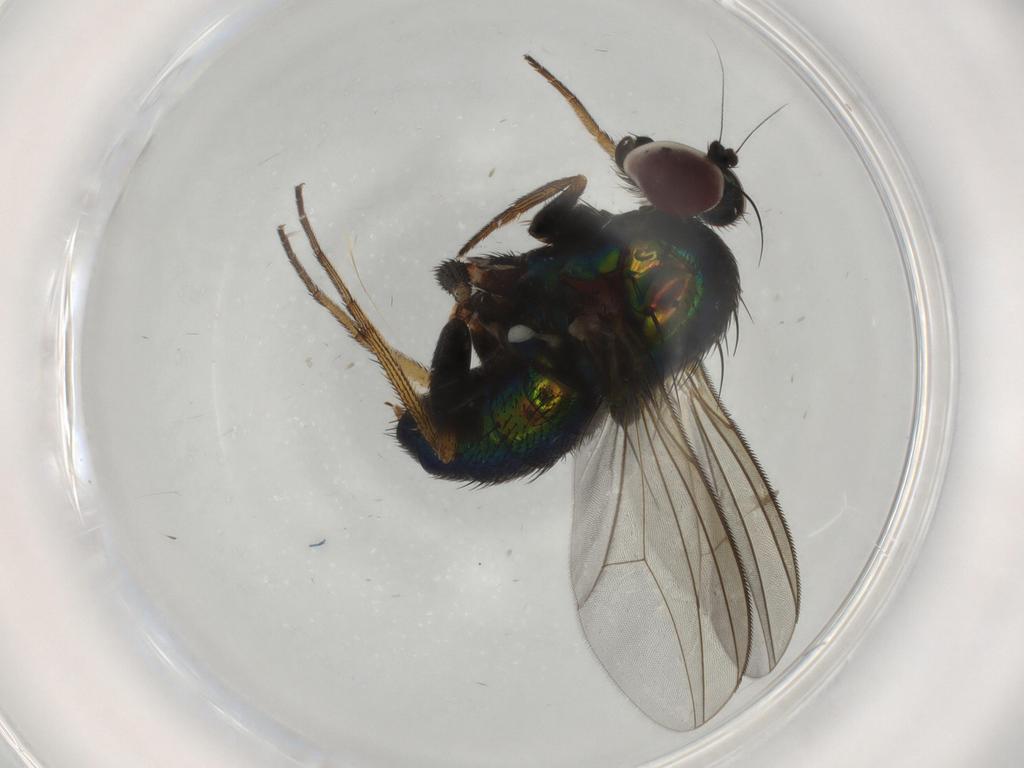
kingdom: Animalia
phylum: Arthropoda
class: Insecta
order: Diptera
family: Dolichopodidae
